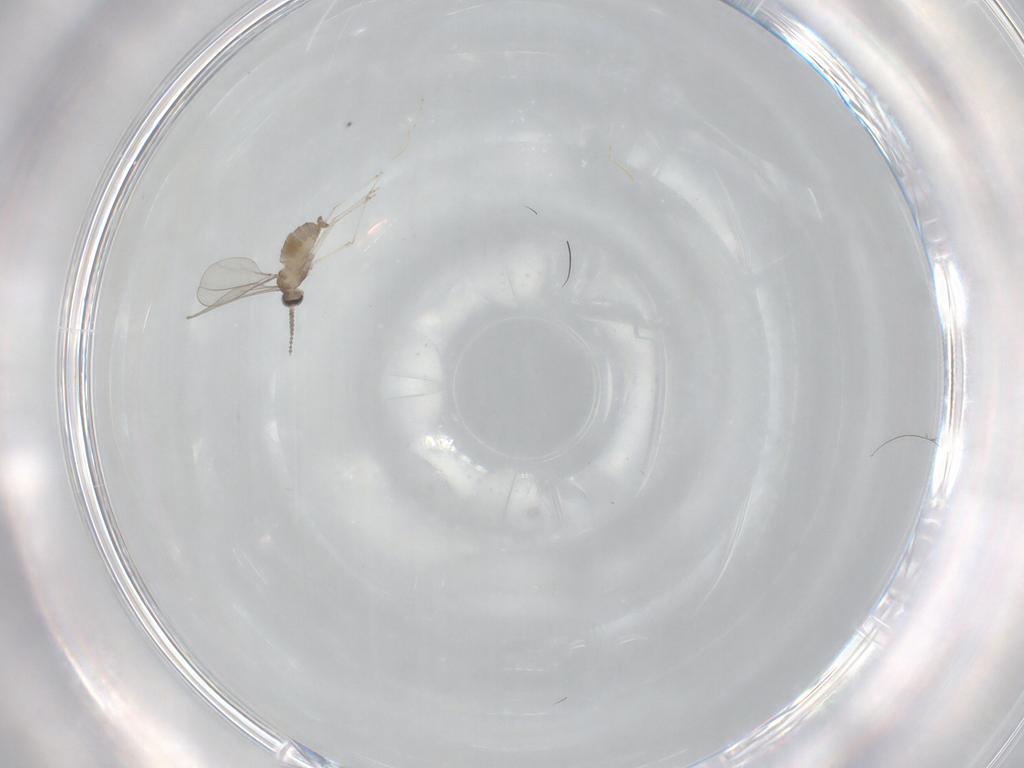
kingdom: Animalia
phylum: Arthropoda
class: Insecta
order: Diptera
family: Cecidomyiidae
